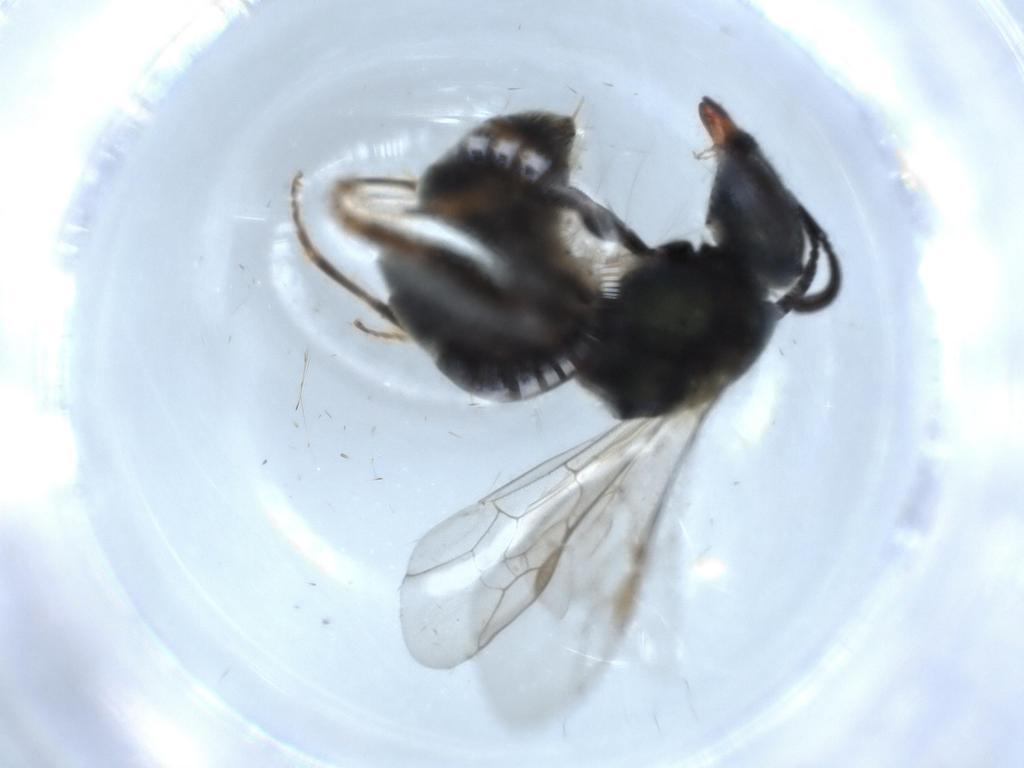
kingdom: Animalia
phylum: Arthropoda
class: Insecta
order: Hymenoptera
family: Halictidae
